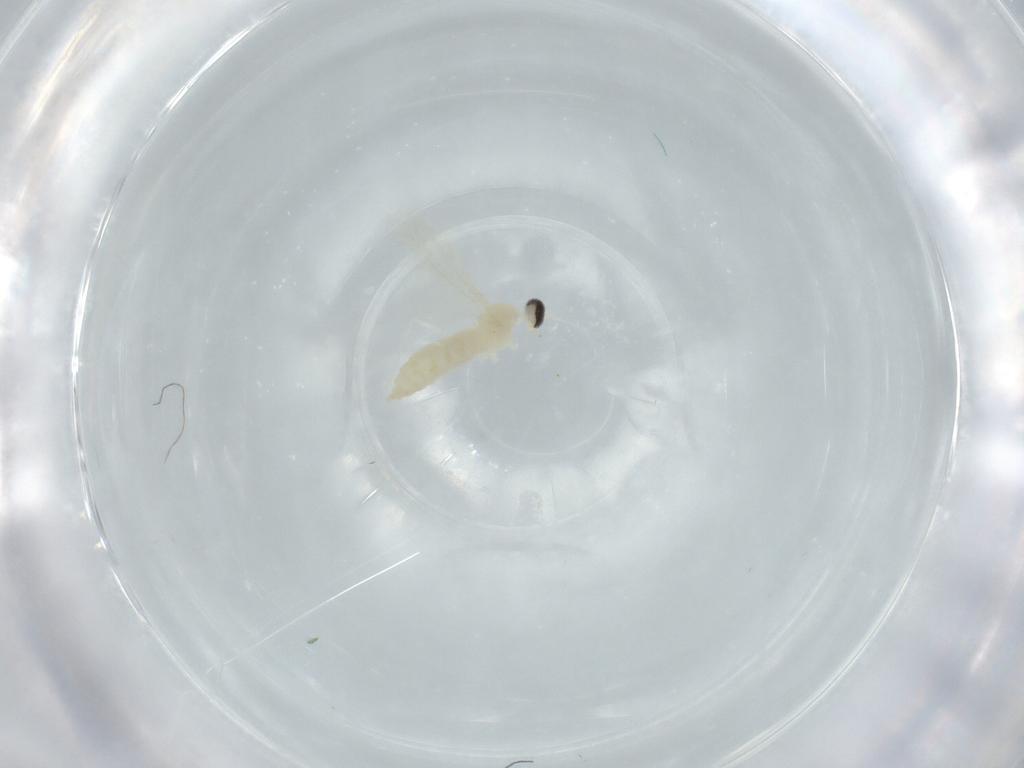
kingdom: Animalia
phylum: Arthropoda
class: Insecta
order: Diptera
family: Cecidomyiidae
